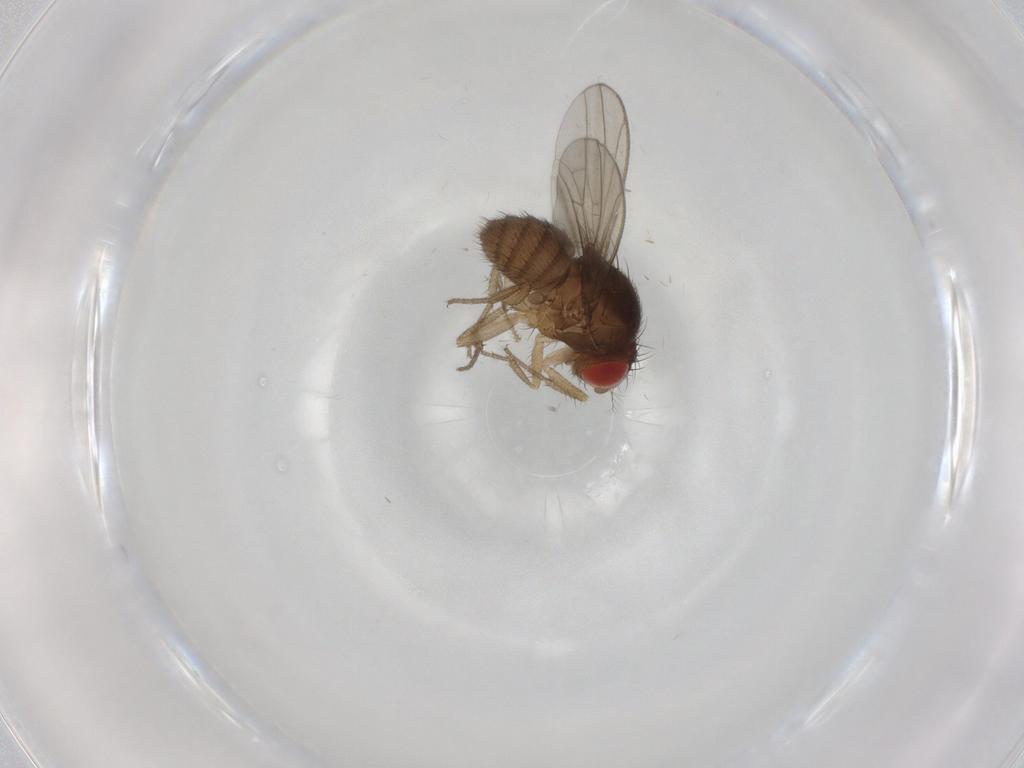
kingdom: Animalia
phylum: Arthropoda
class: Insecta
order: Diptera
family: Drosophilidae
